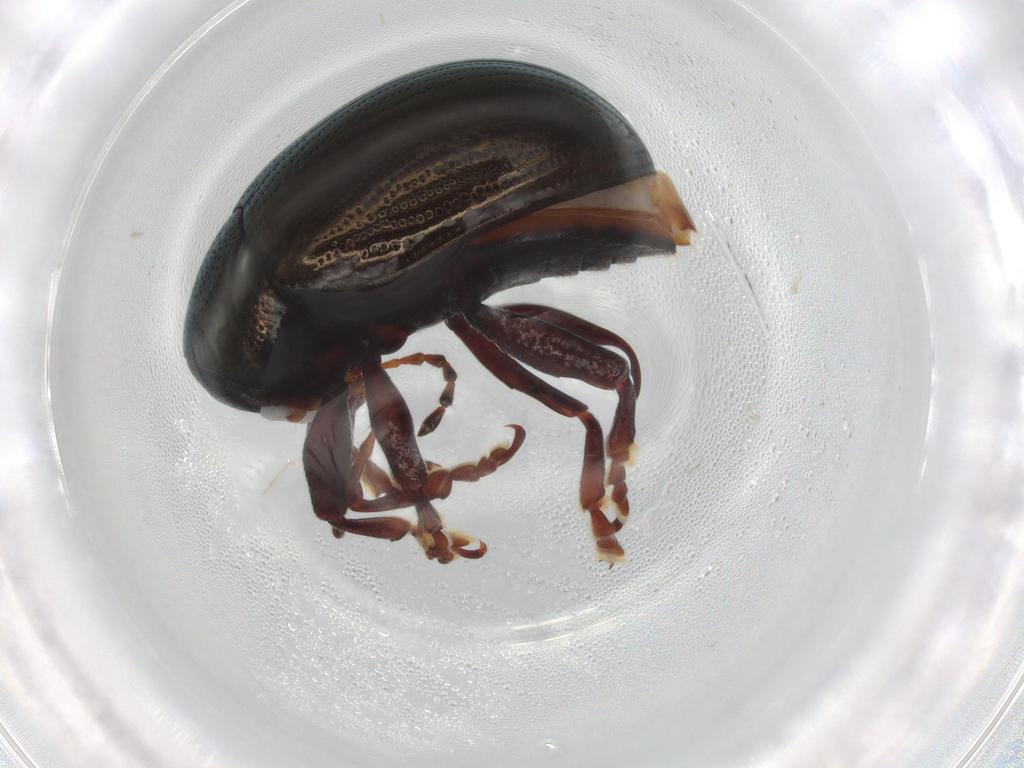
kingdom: Animalia
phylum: Arthropoda
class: Insecta
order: Coleoptera
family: Chrysomelidae
